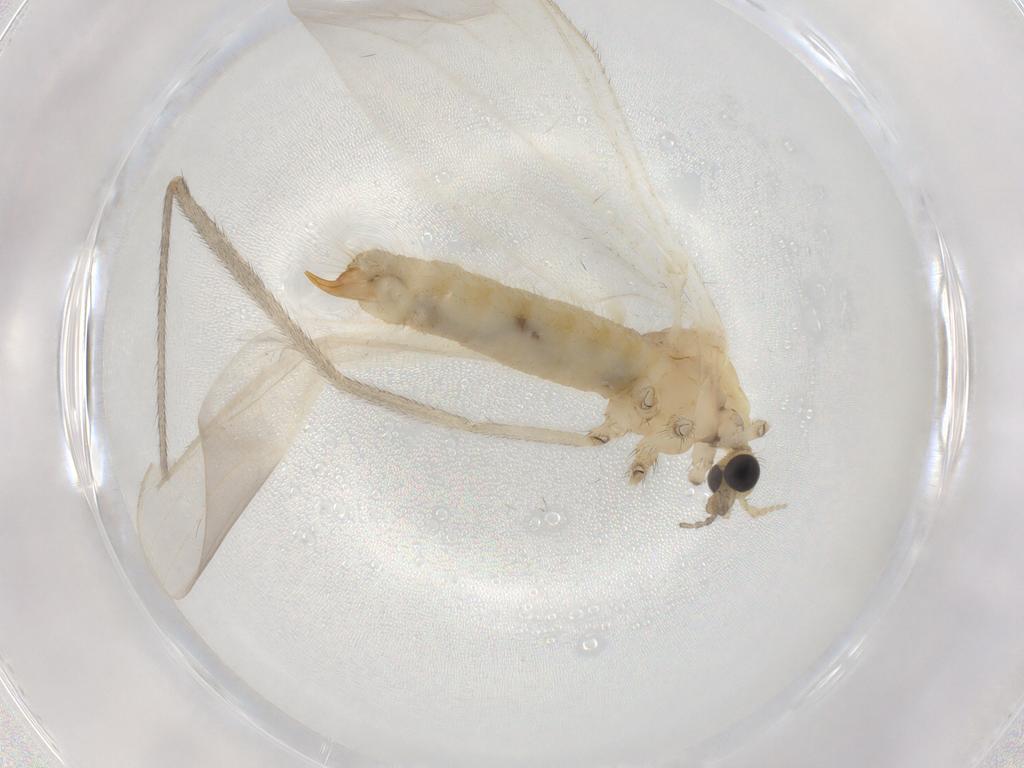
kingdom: Animalia
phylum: Arthropoda
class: Insecta
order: Diptera
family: Limoniidae
